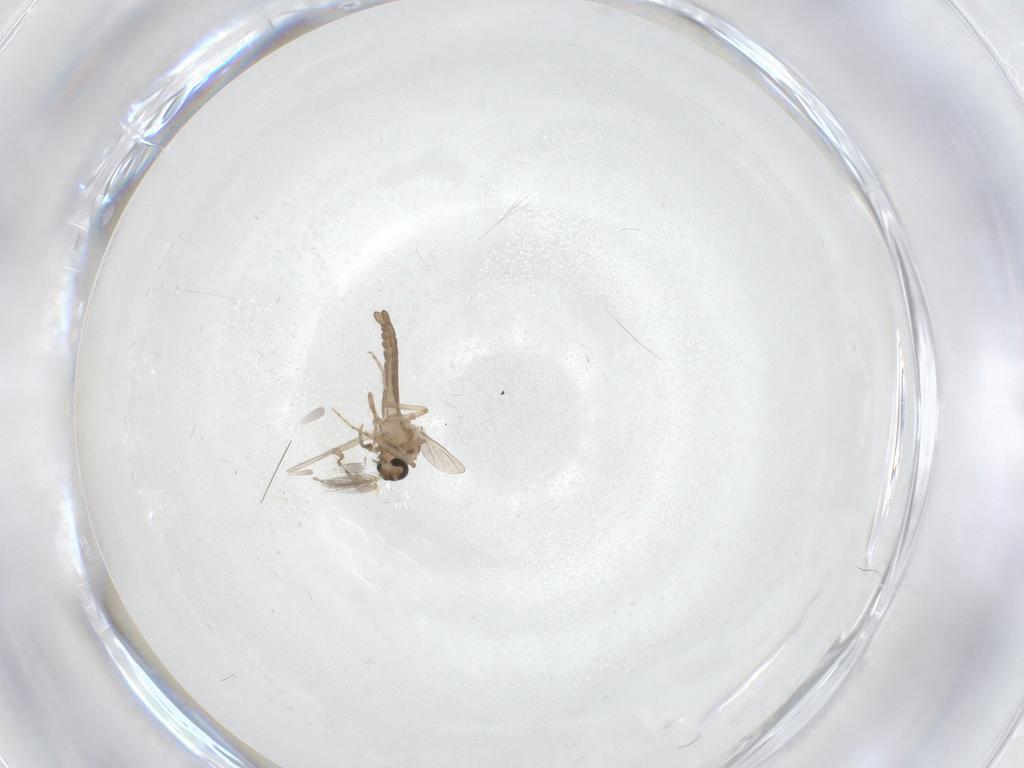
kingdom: Animalia
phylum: Arthropoda
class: Insecta
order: Diptera
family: Ceratopogonidae
